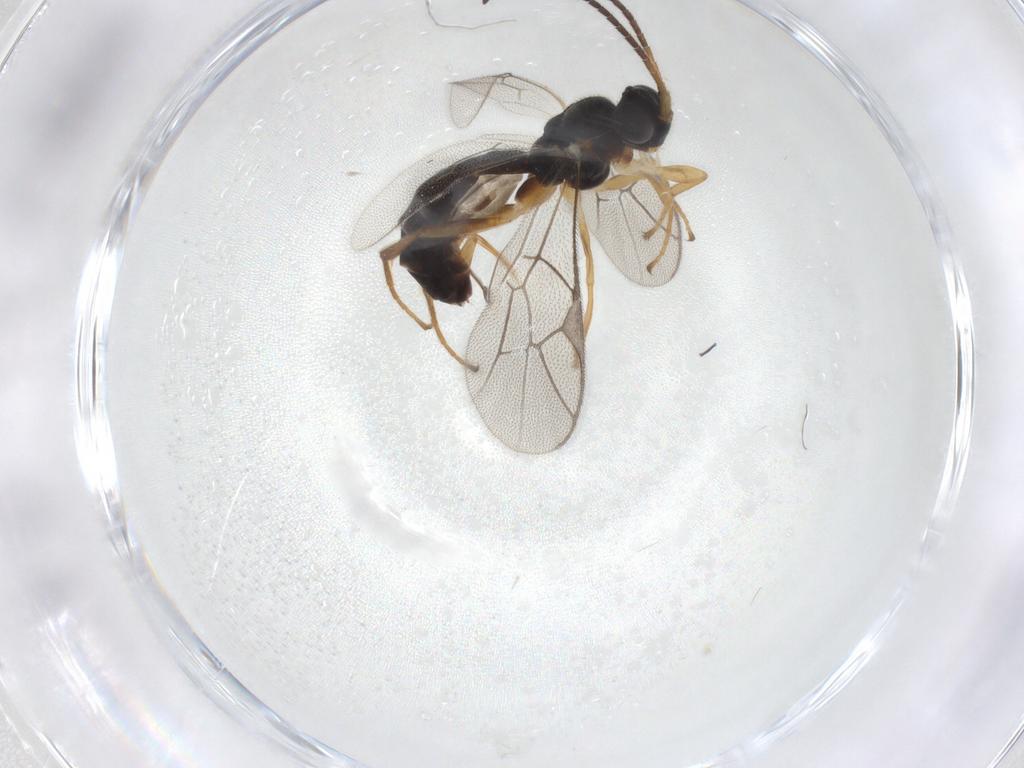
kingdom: Animalia
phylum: Arthropoda
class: Insecta
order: Hymenoptera
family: Ichneumonidae
